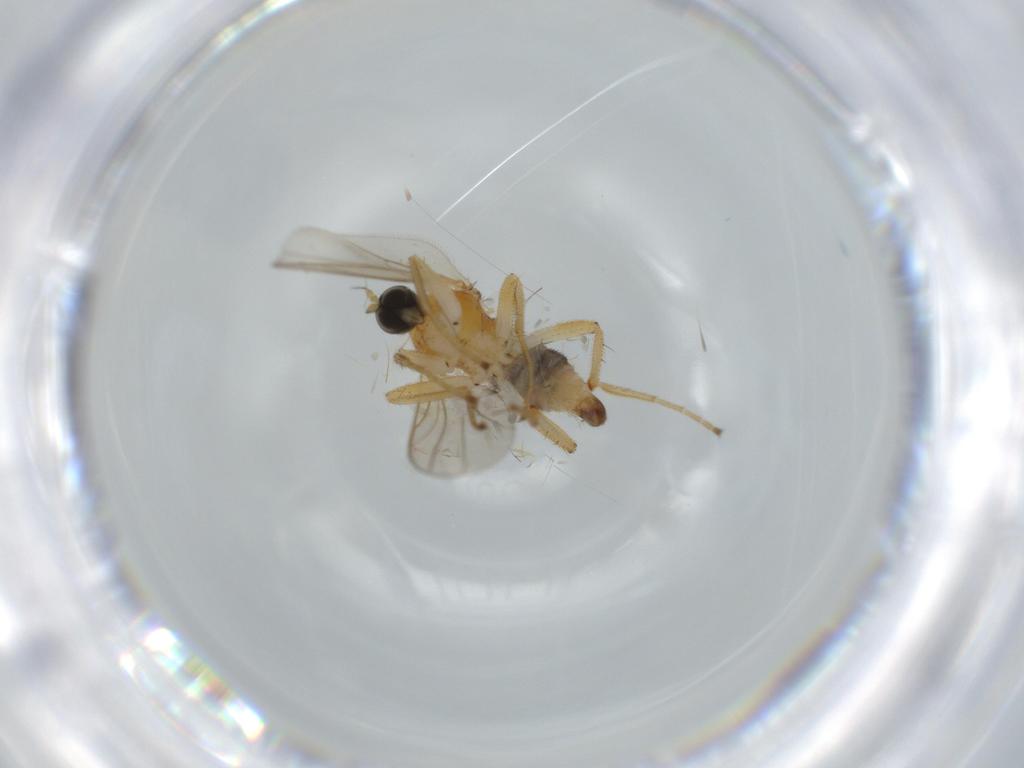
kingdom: Animalia
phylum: Arthropoda
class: Insecta
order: Diptera
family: Hybotidae
